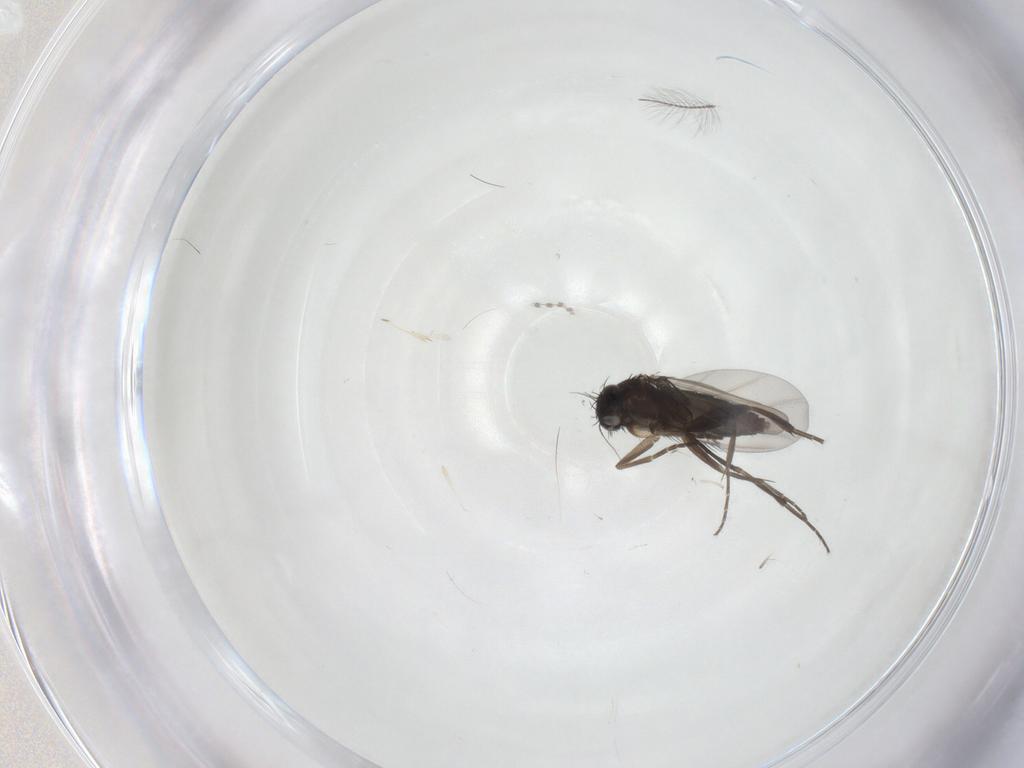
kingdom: Animalia
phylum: Arthropoda
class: Insecta
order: Diptera
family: Phoridae
